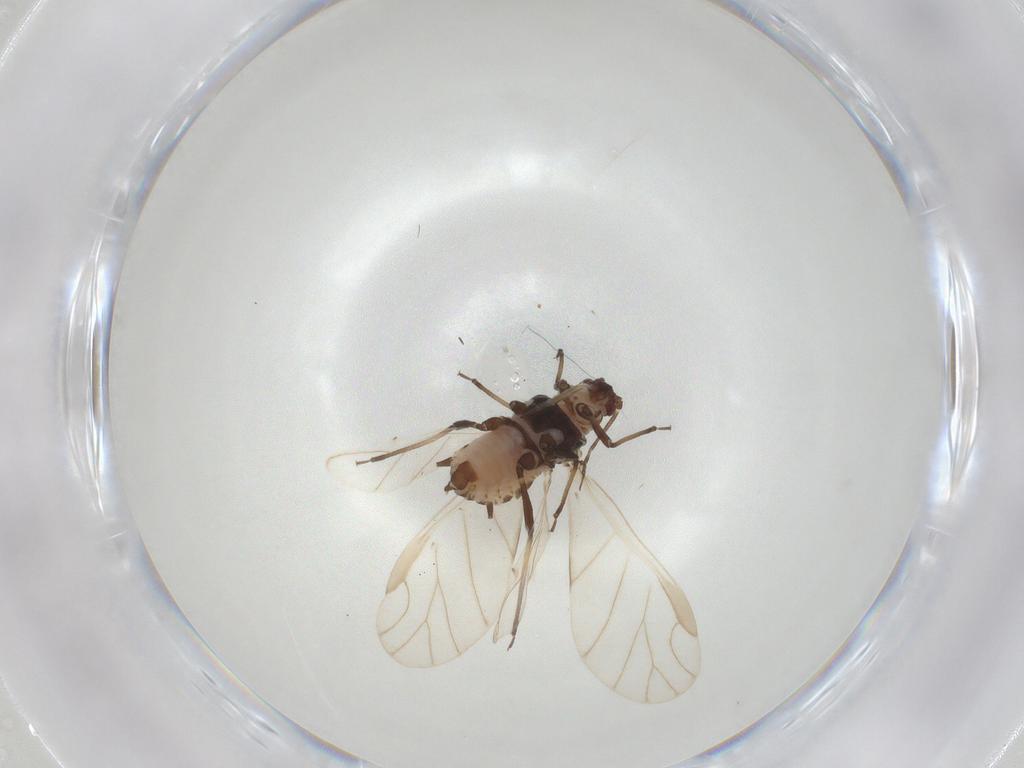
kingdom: Animalia
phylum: Arthropoda
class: Insecta
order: Hemiptera
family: Aphididae
